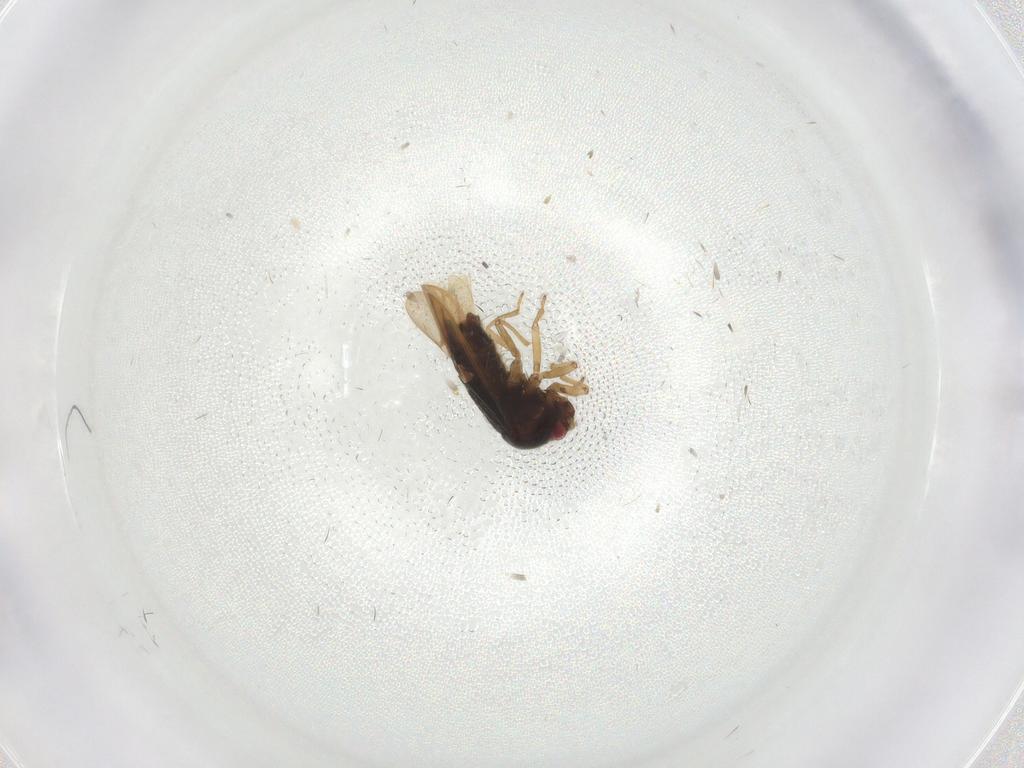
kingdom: Animalia
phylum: Arthropoda
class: Insecta
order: Hemiptera
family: Schizopteridae
